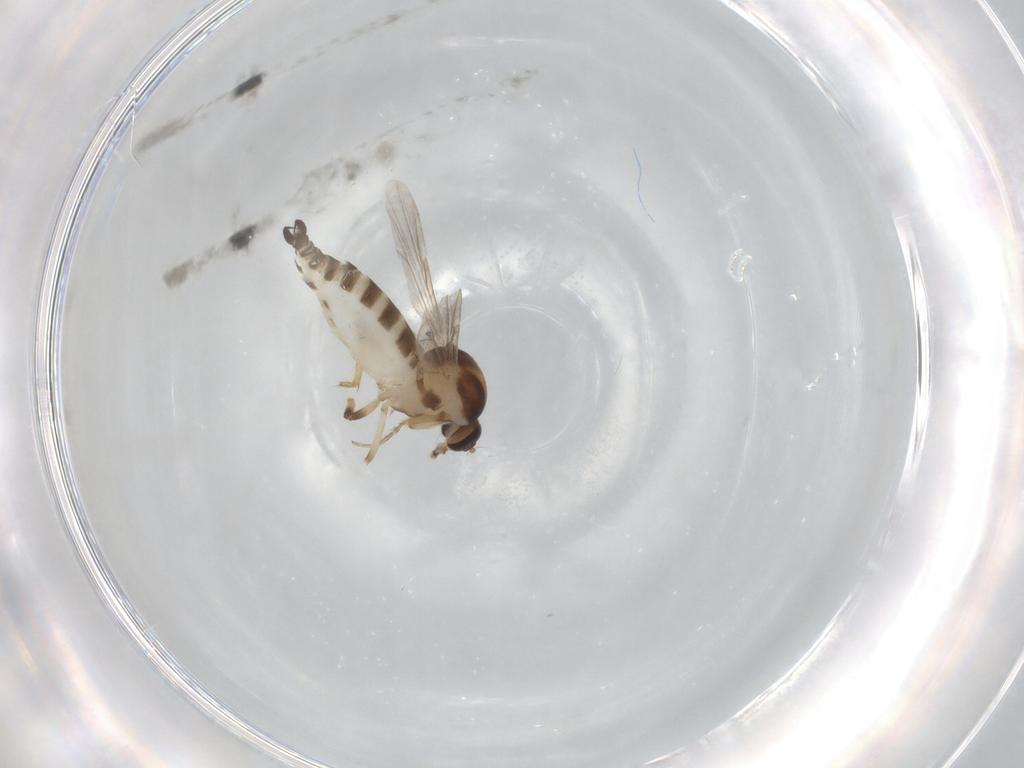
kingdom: Animalia
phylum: Arthropoda
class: Insecta
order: Diptera
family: Ceratopogonidae
